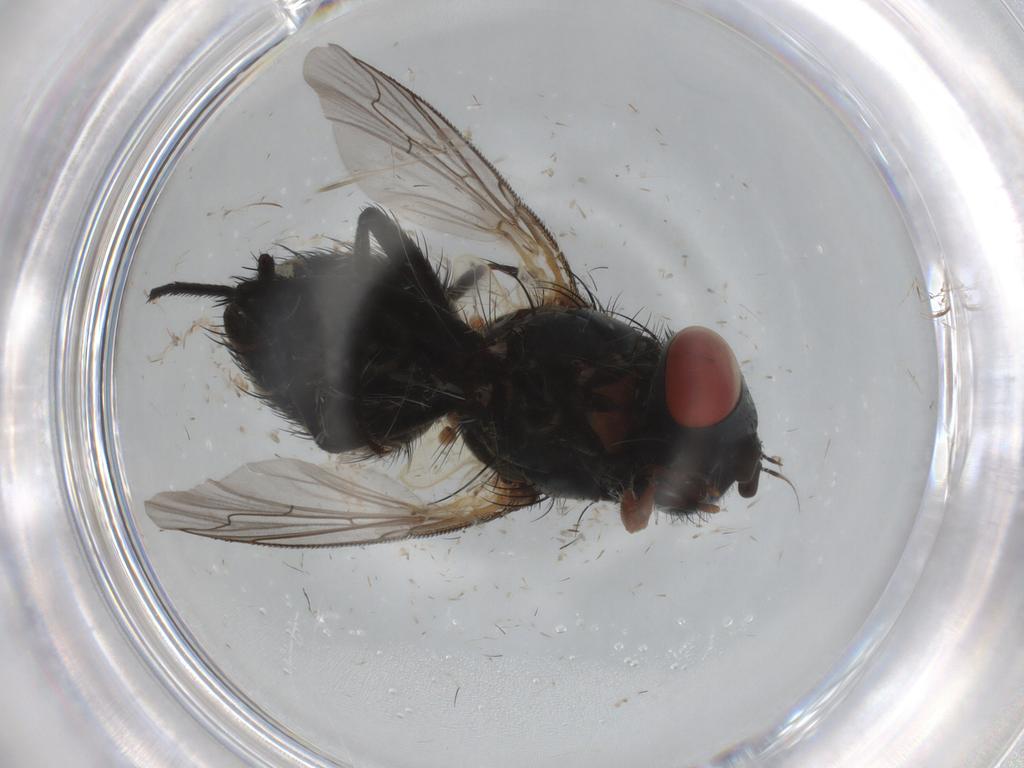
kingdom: Animalia
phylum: Arthropoda
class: Insecta
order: Diptera
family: Sarcophagidae
